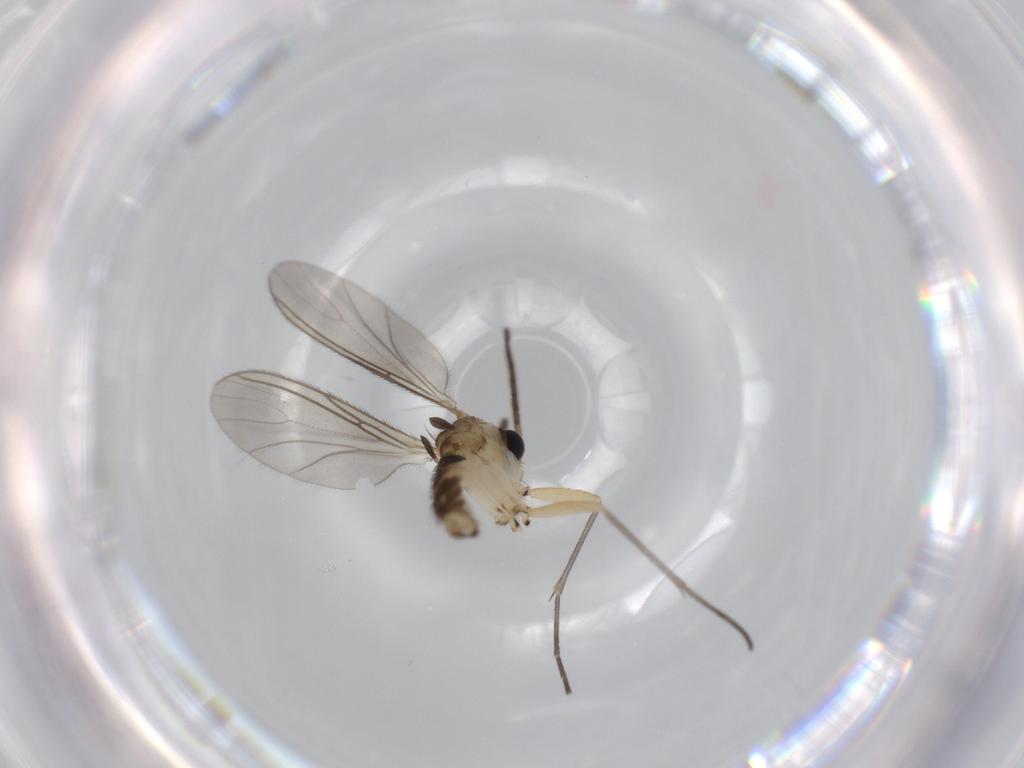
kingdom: Animalia
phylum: Arthropoda
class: Insecta
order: Diptera
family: Sciaridae
